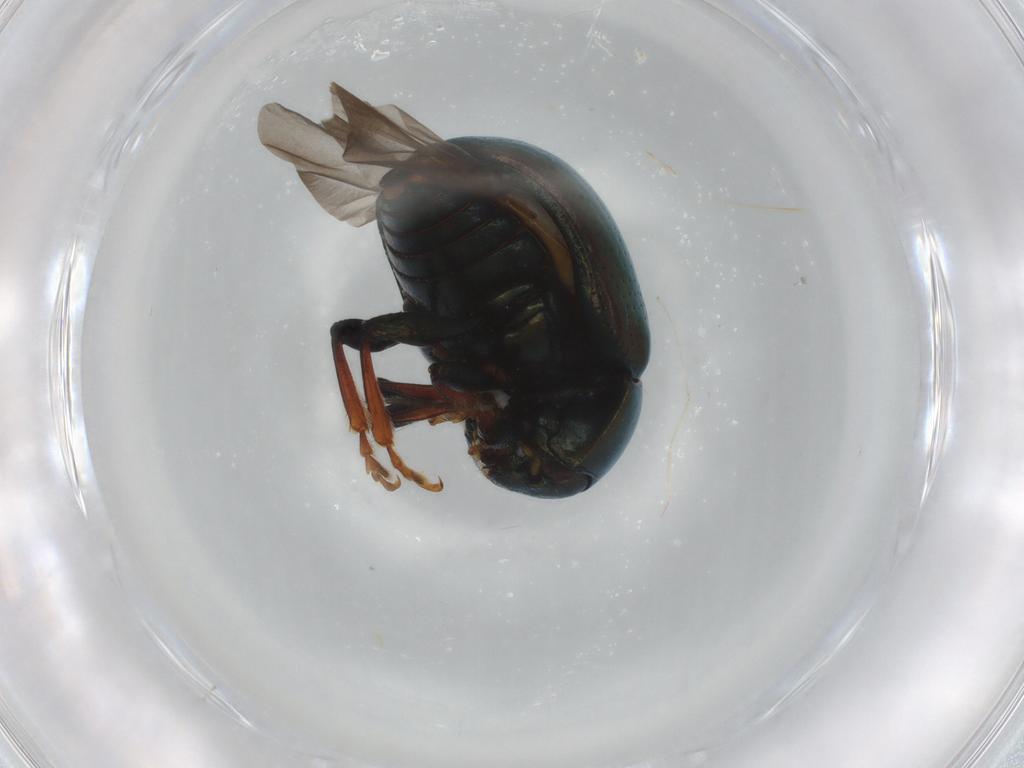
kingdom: Animalia
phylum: Arthropoda
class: Insecta
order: Coleoptera
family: Chrysomelidae
